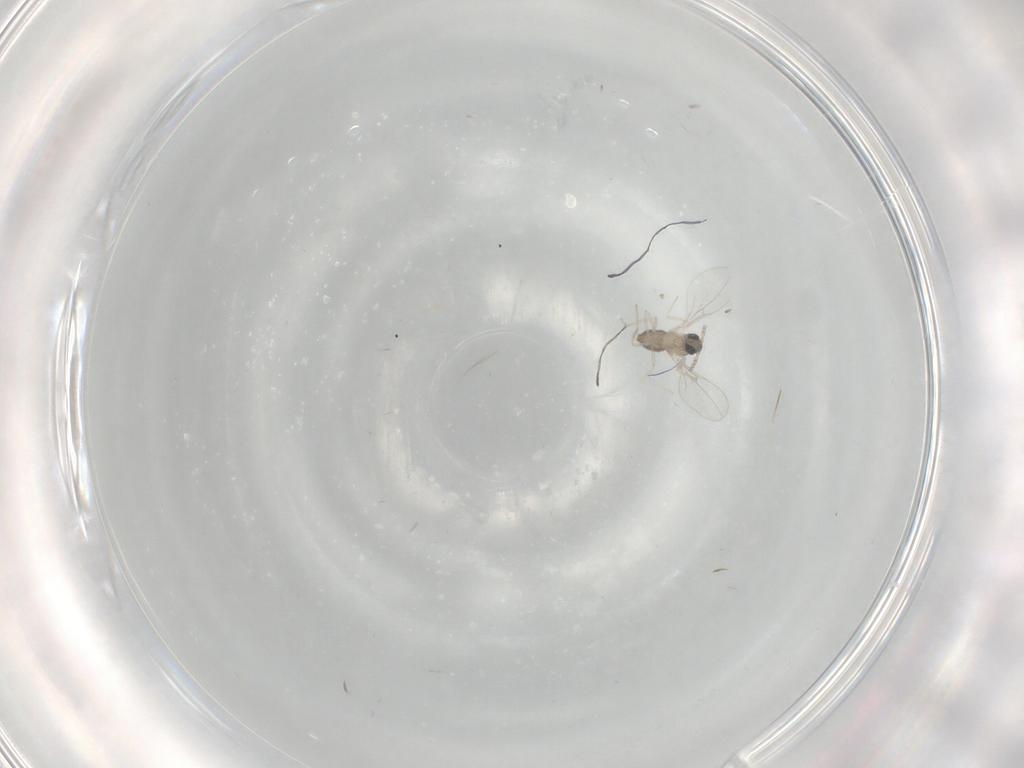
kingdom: Animalia
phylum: Arthropoda
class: Insecta
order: Diptera
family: Cecidomyiidae
